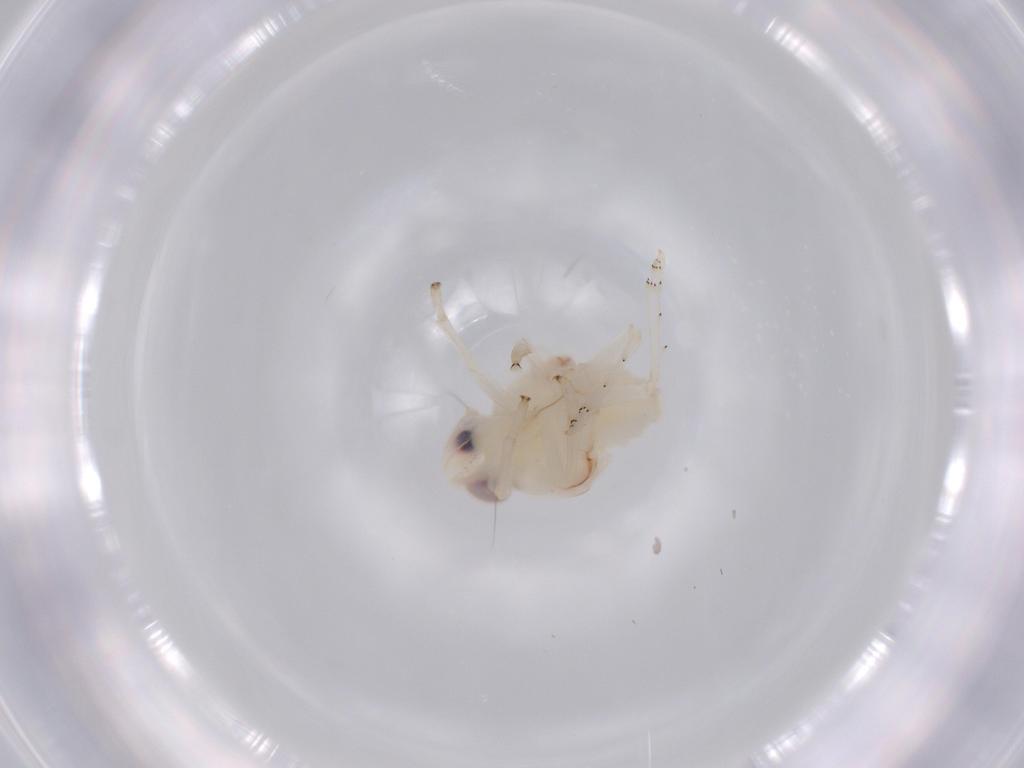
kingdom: Animalia
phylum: Arthropoda
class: Insecta
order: Hemiptera
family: Nogodinidae
